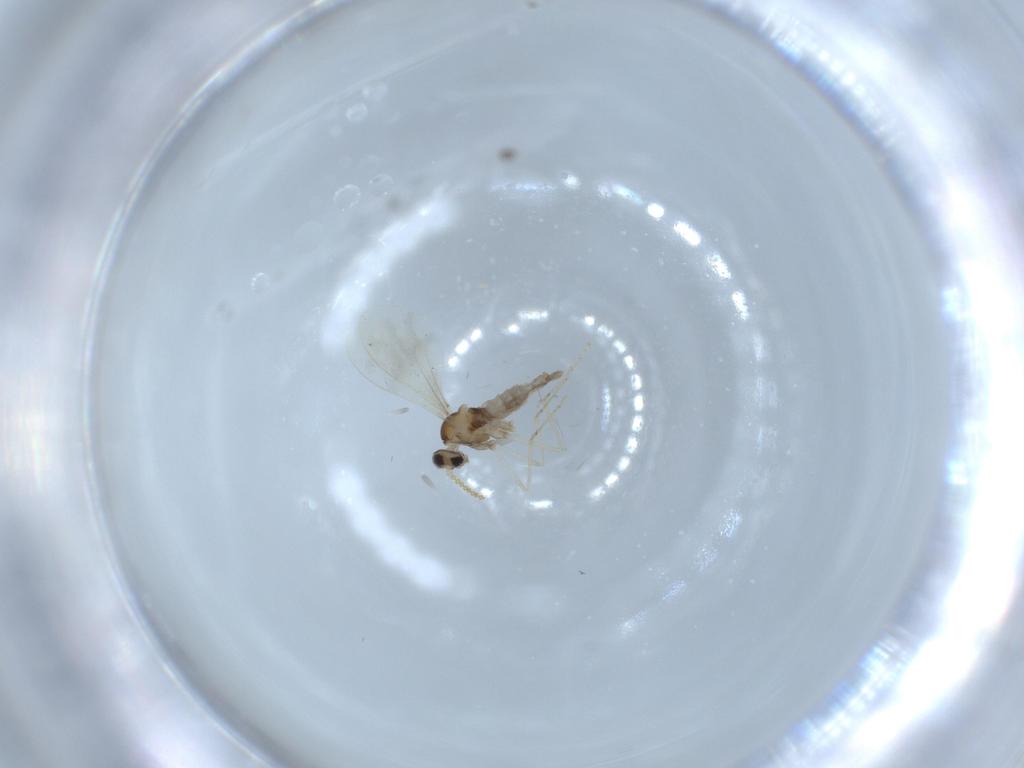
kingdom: Animalia
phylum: Arthropoda
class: Insecta
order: Diptera
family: Cecidomyiidae
